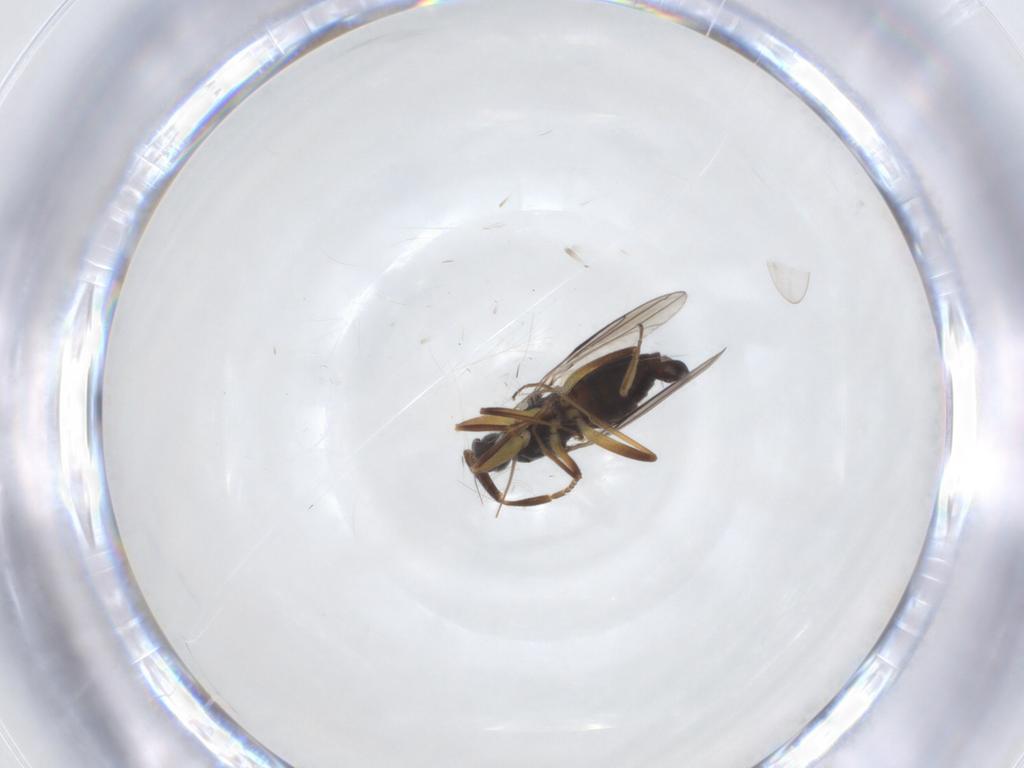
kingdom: Animalia
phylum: Arthropoda
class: Insecta
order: Diptera
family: Hybotidae
